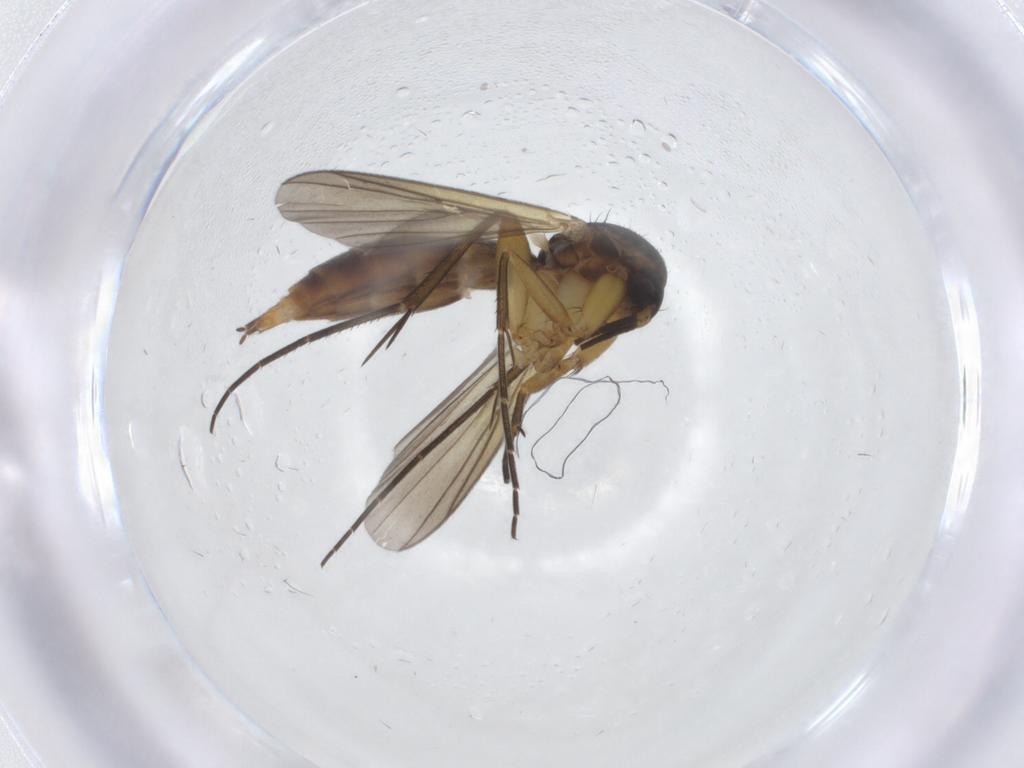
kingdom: Animalia
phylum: Arthropoda
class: Insecta
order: Diptera
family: Mycetophilidae
